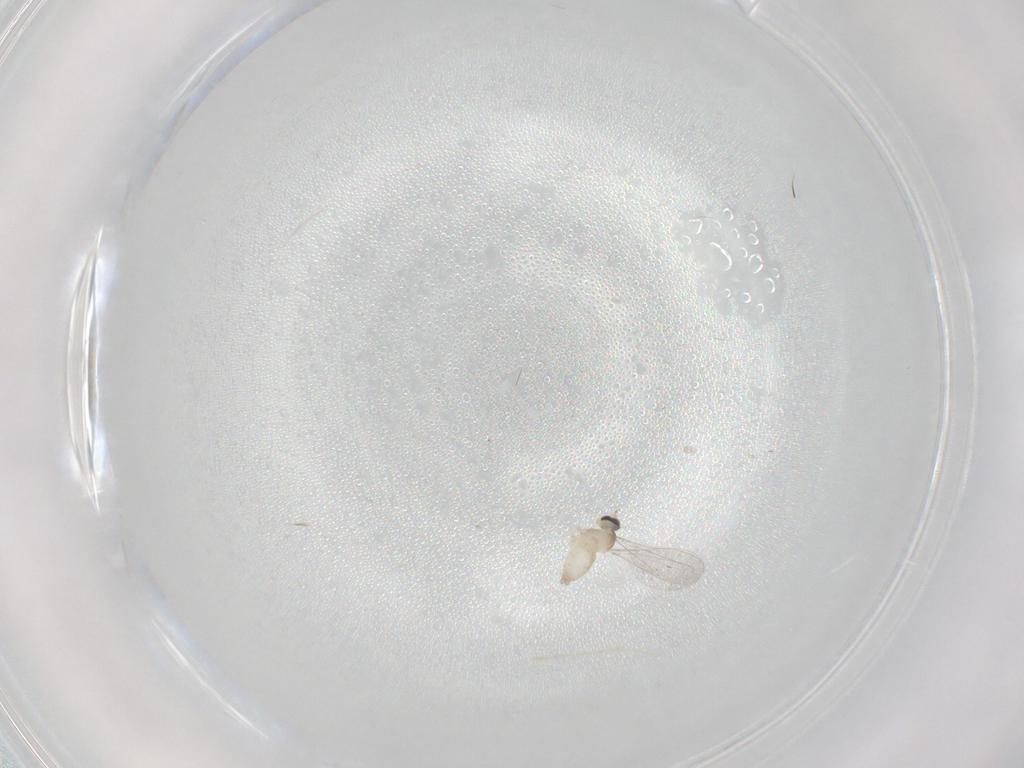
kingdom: Animalia
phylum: Arthropoda
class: Insecta
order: Diptera
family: Cecidomyiidae
